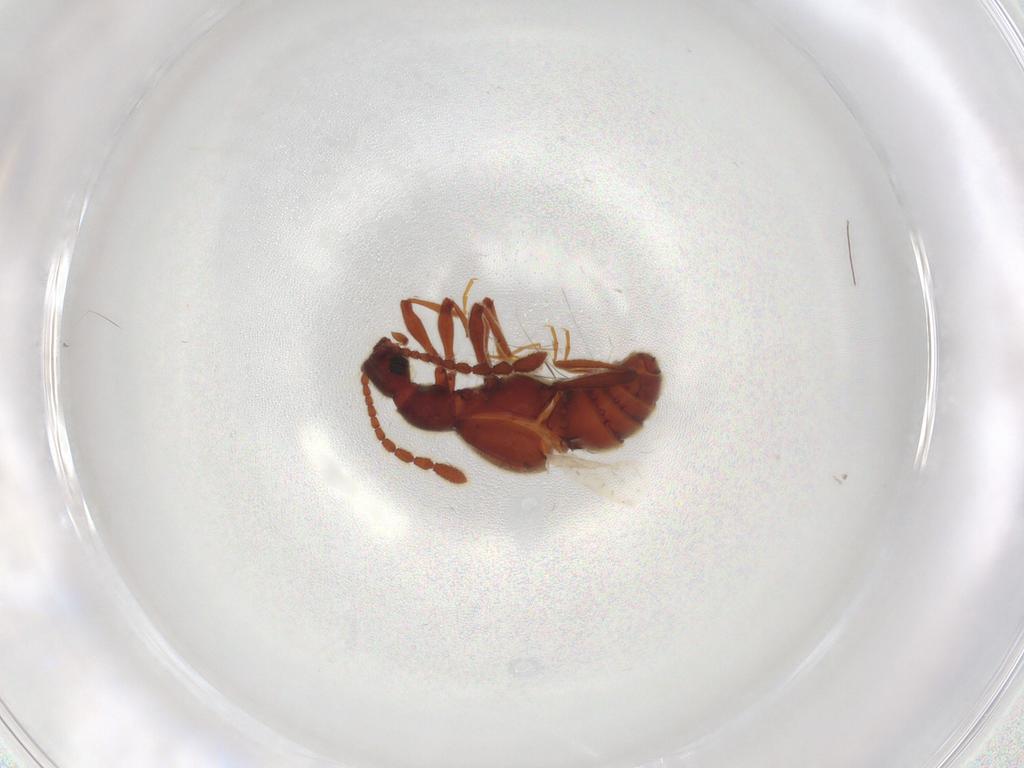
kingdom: Animalia
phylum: Arthropoda
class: Insecta
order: Coleoptera
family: Staphylinidae
